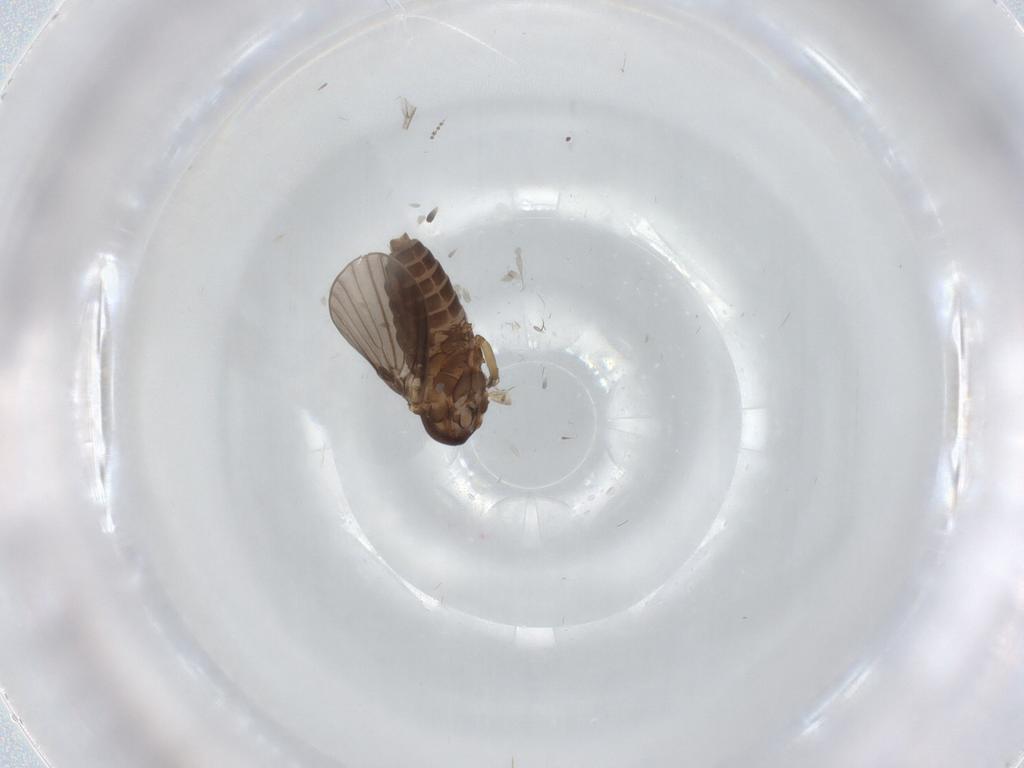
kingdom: Animalia
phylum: Arthropoda
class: Insecta
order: Diptera
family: Psychodidae
